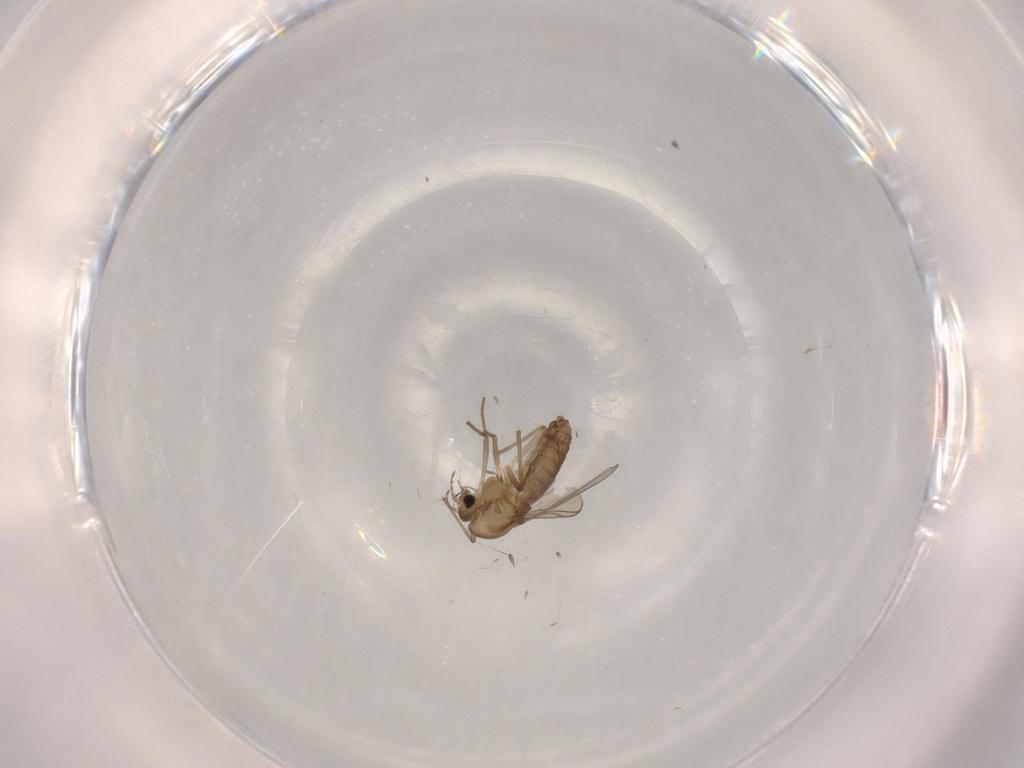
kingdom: Animalia
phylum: Arthropoda
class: Insecta
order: Diptera
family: Chironomidae
